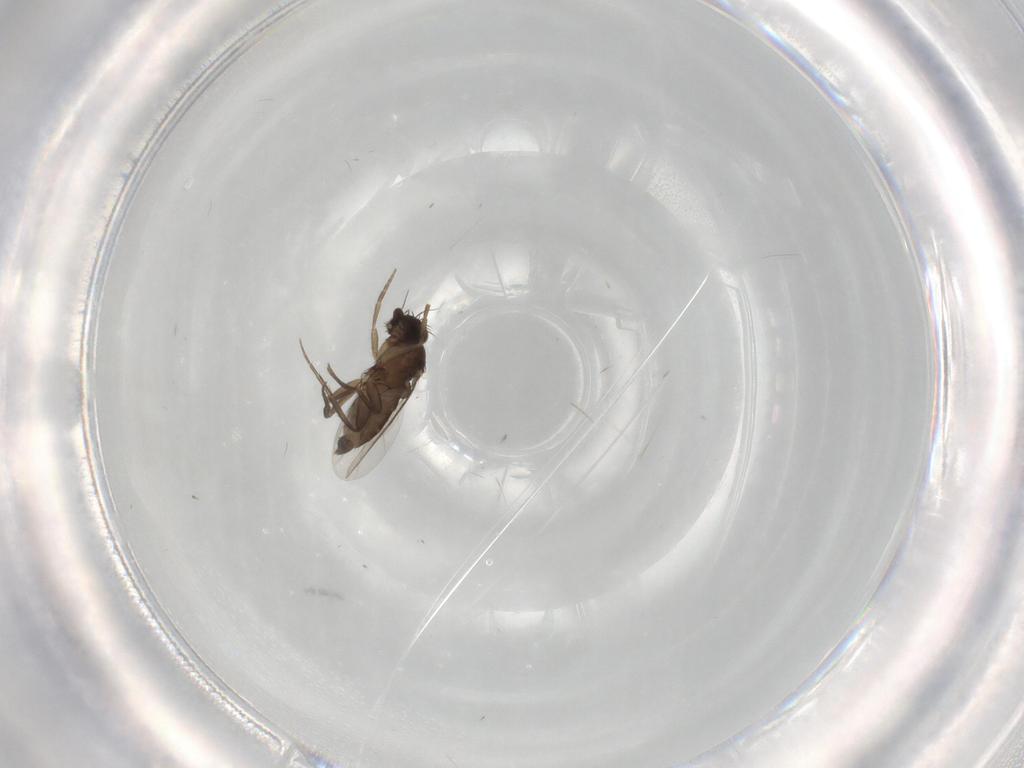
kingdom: Animalia
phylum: Arthropoda
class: Insecta
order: Diptera
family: Phoridae
